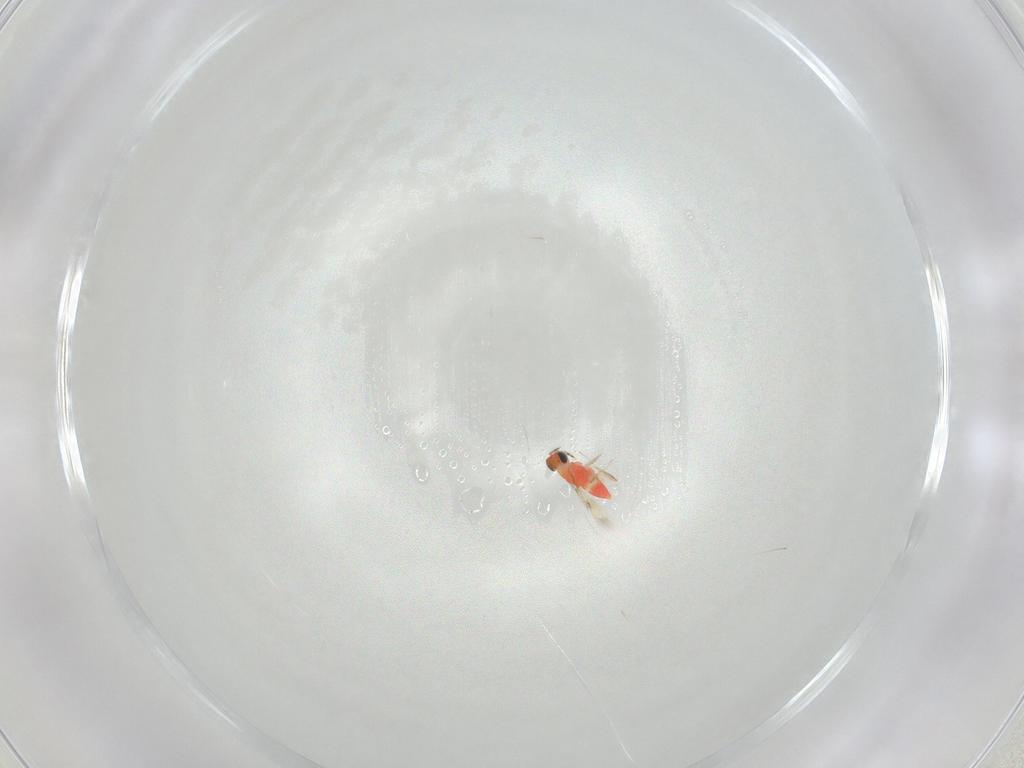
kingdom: Animalia
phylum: Arthropoda
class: Insecta
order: Hymenoptera
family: Trichogrammatidae
